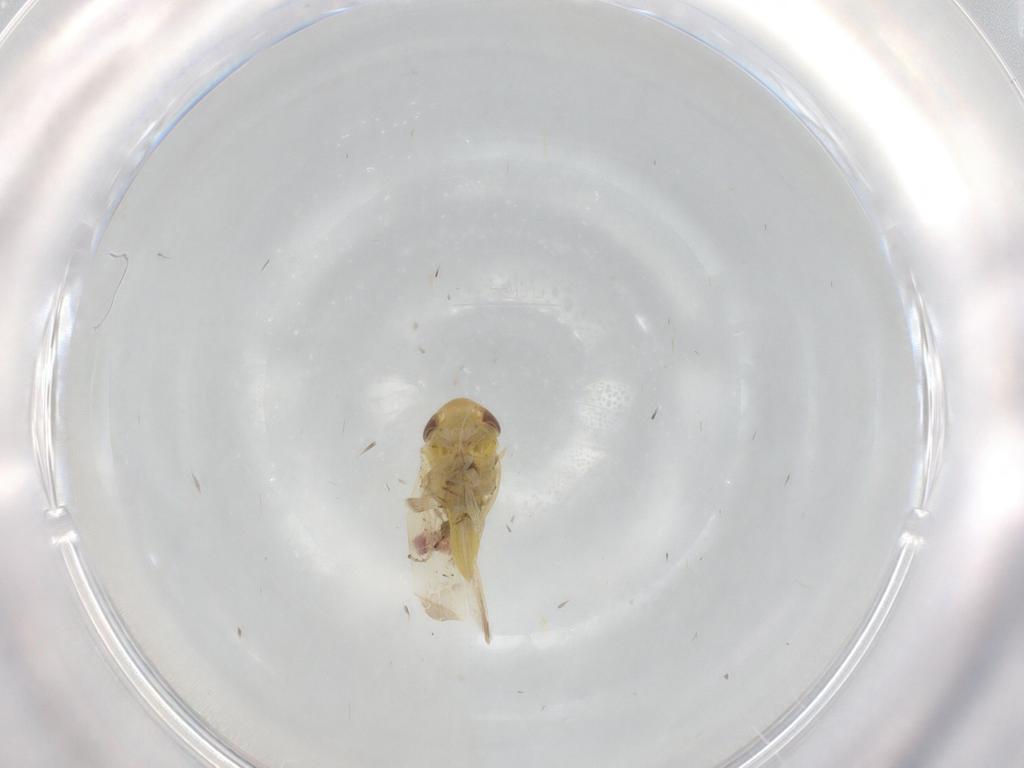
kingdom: Animalia
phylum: Arthropoda
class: Insecta
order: Hemiptera
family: Cicadellidae
